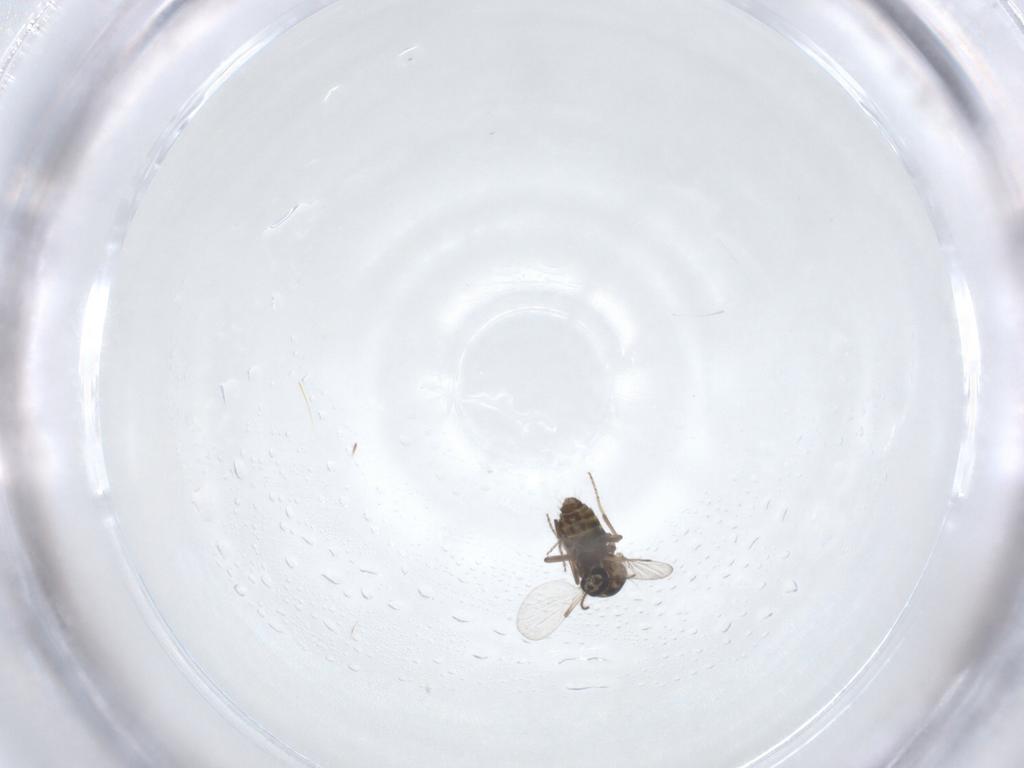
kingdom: Animalia
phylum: Arthropoda
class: Insecta
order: Diptera
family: Ceratopogonidae
